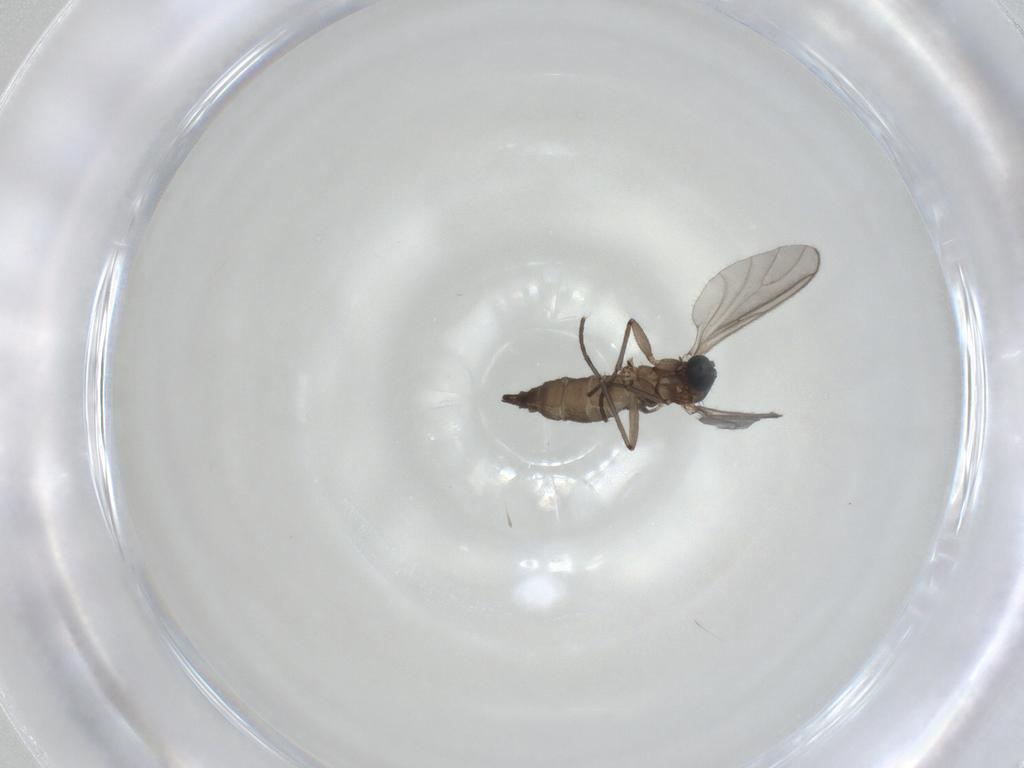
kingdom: Animalia
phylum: Arthropoda
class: Insecta
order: Diptera
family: Sciaridae
